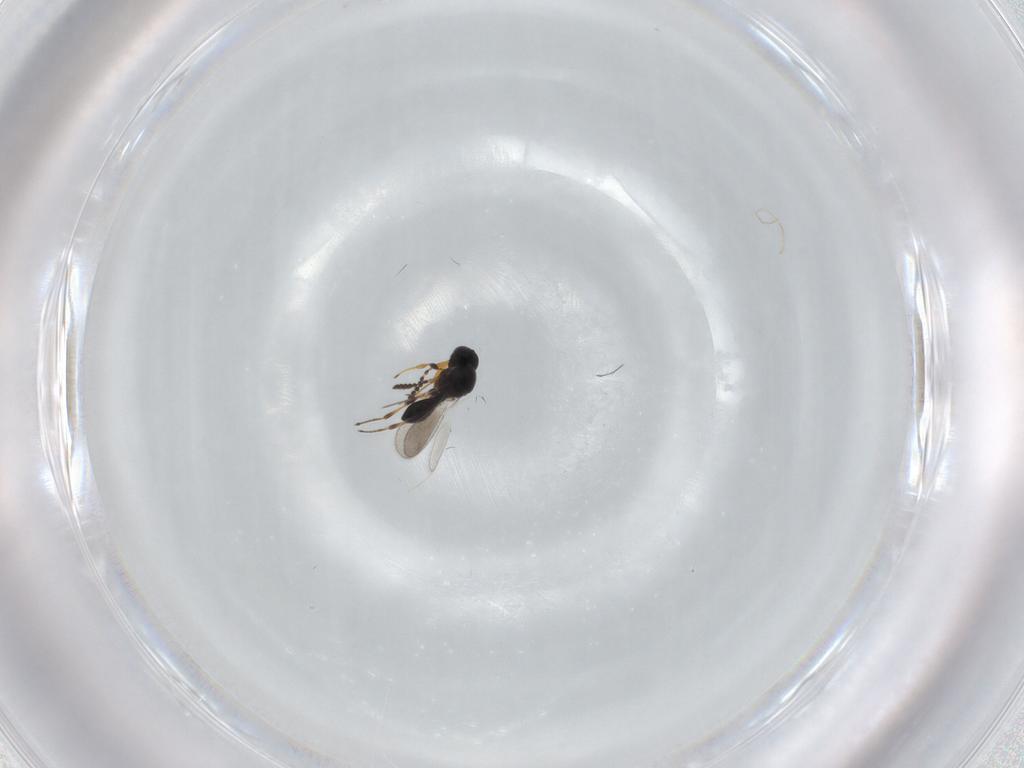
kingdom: Animalia
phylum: Arthropoda
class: Insecta
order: Hymenoptera
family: Platygastridae
